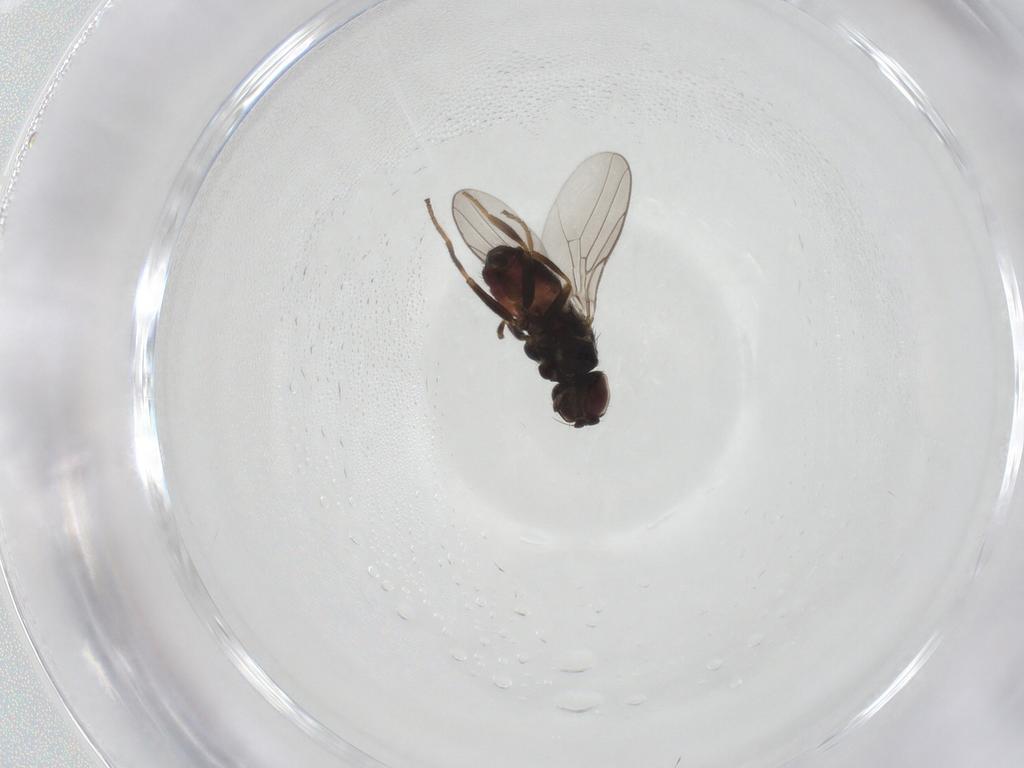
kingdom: Animalia
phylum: Arthropoda
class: Insecta
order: Diptera
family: Chloropidae
